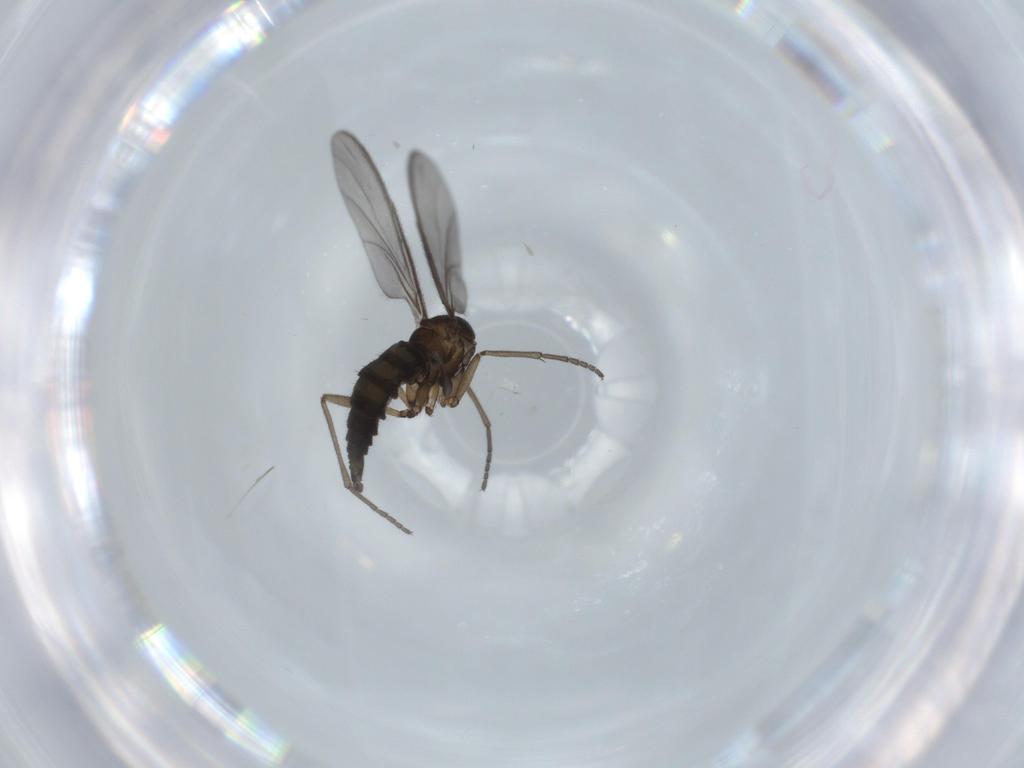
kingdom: Animalia
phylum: Arthropoda
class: Insecta
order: Diptera
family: Sciaridae
